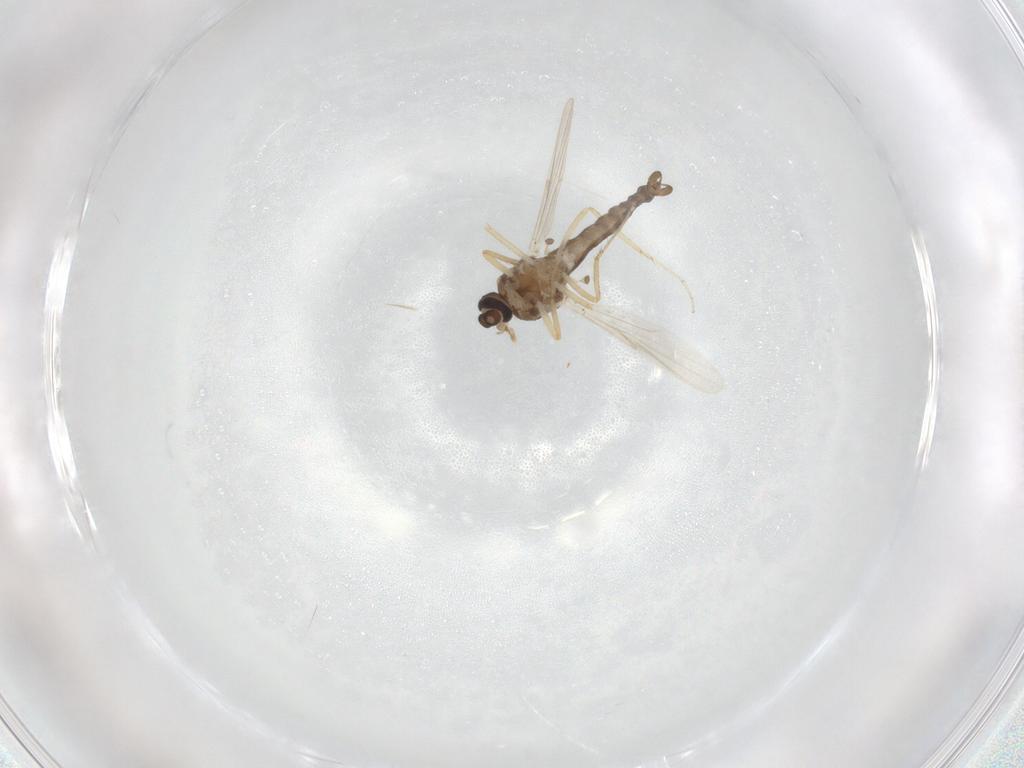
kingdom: Animalia
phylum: Arthropoda
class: Insecta
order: Diptera
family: Ceratopogonidae
